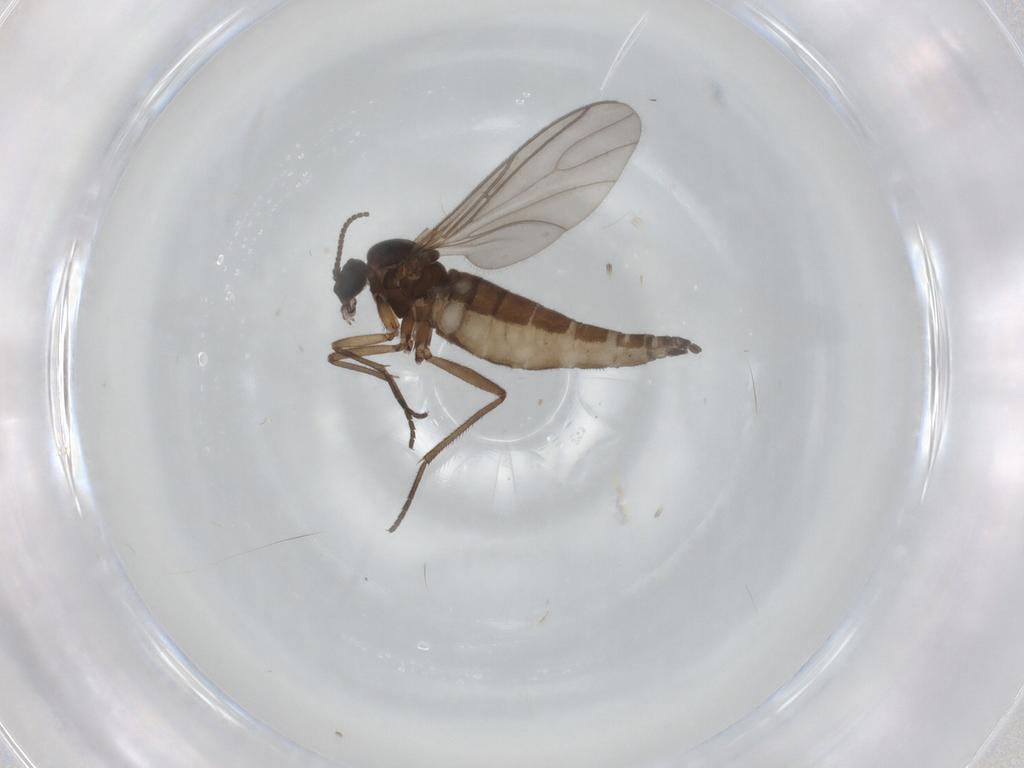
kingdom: Animalia
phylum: Arthropoda
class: Insecta
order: Diptera
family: Sciaridae
